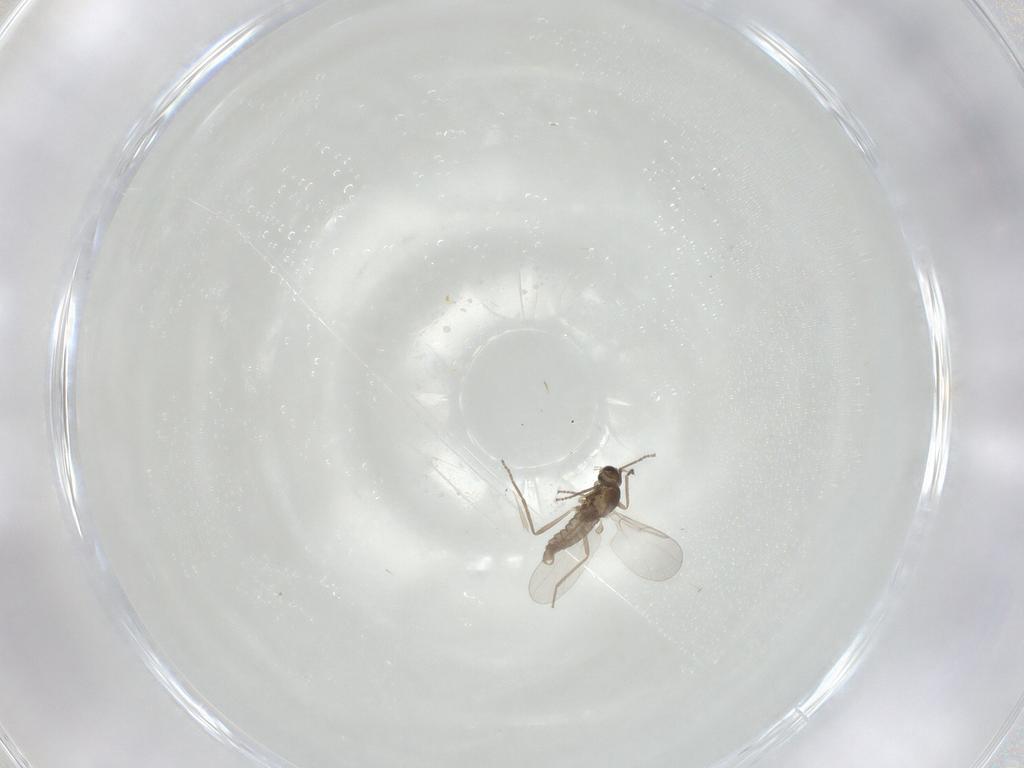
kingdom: Animalia
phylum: Arthropoda
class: Insecta
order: Diptera
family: Cecidomyiidae
